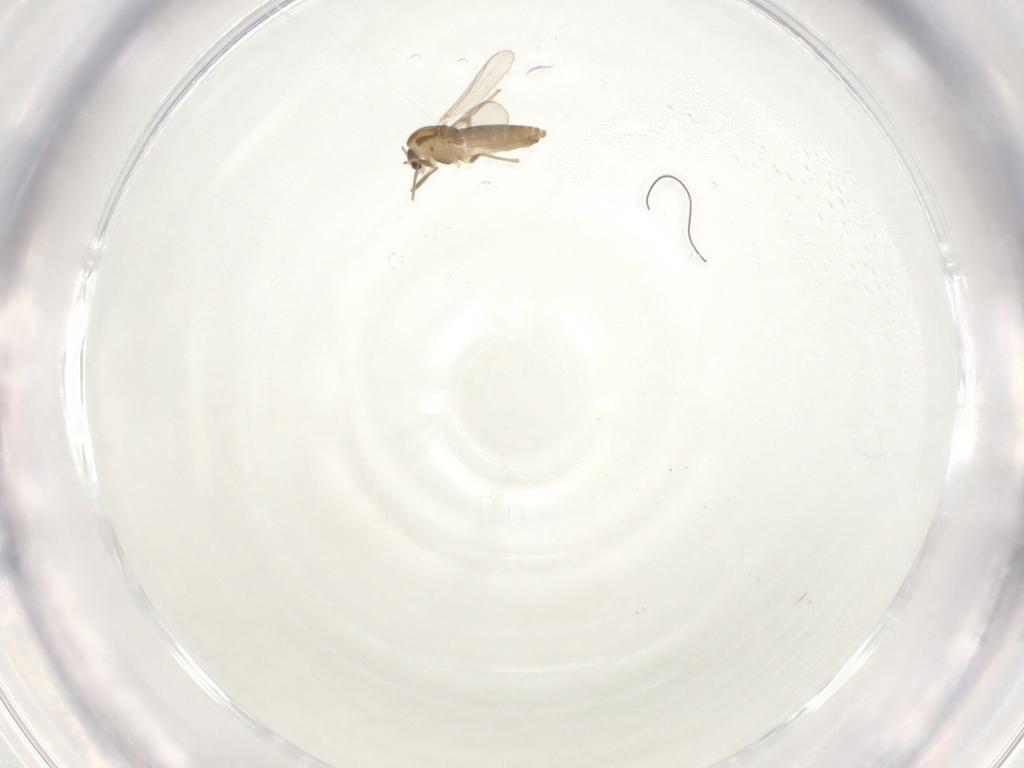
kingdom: Animalia
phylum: Arthropoda
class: Insecta
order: Diptera
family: Chironomidae
